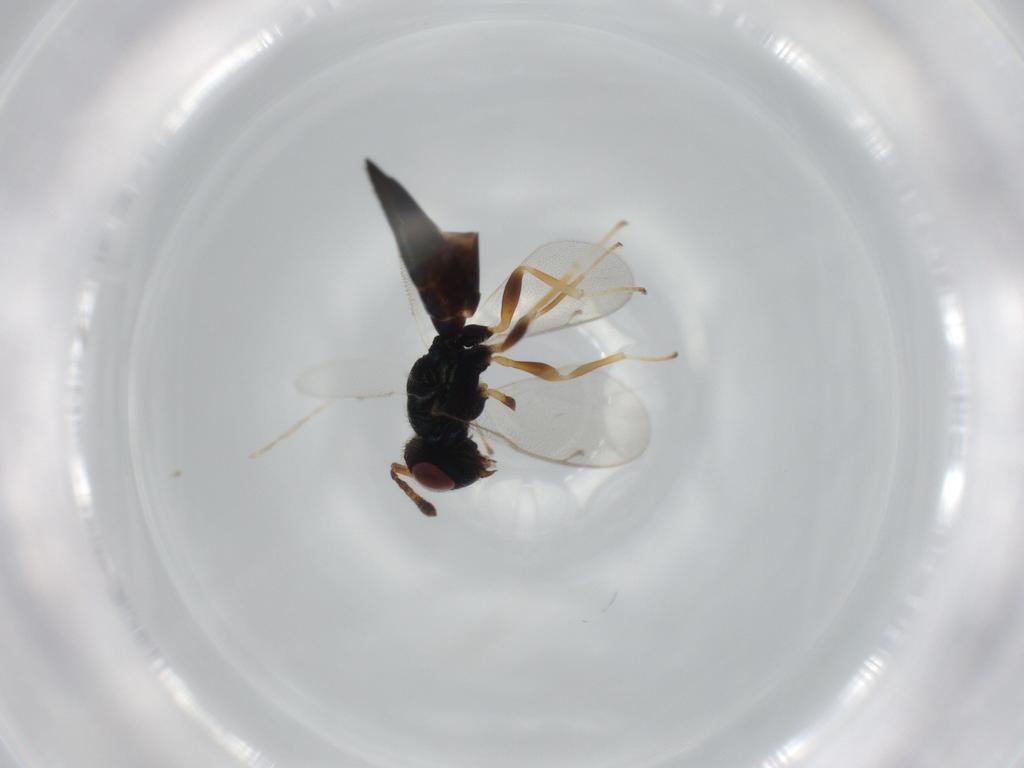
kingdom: Animalia
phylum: Arthropoda
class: Insecta
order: Hymenoptera
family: Pteromalidae
